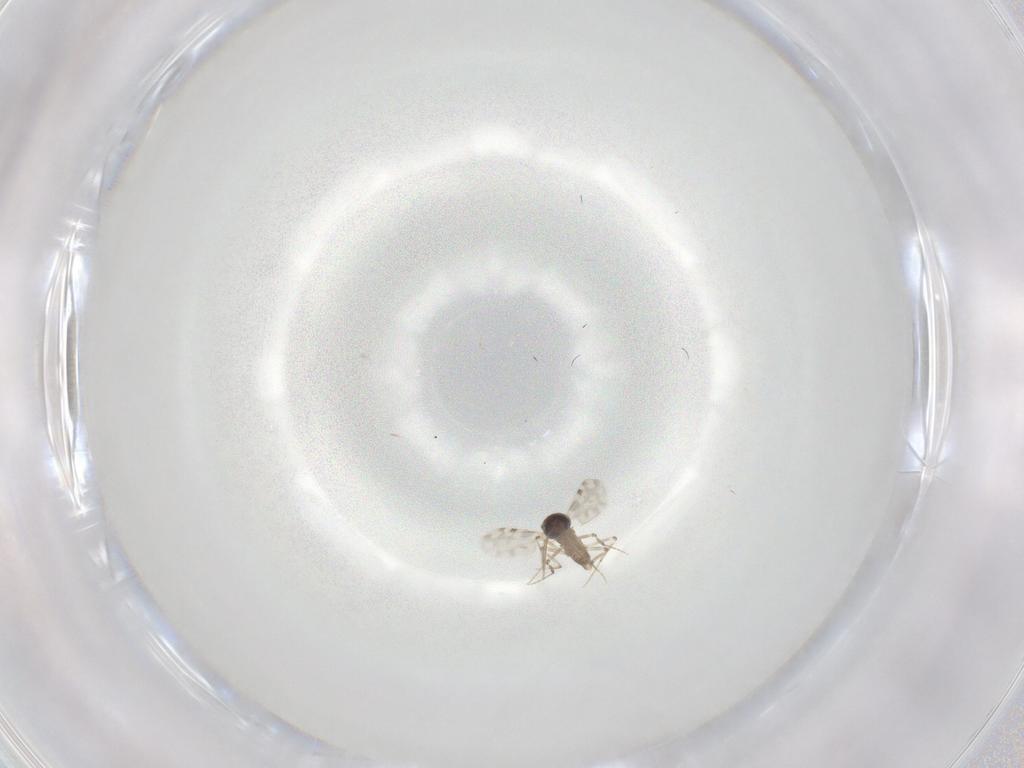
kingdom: Animalia
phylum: Arthropoda
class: Insecta
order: Diptera
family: Ceratopogonidae
